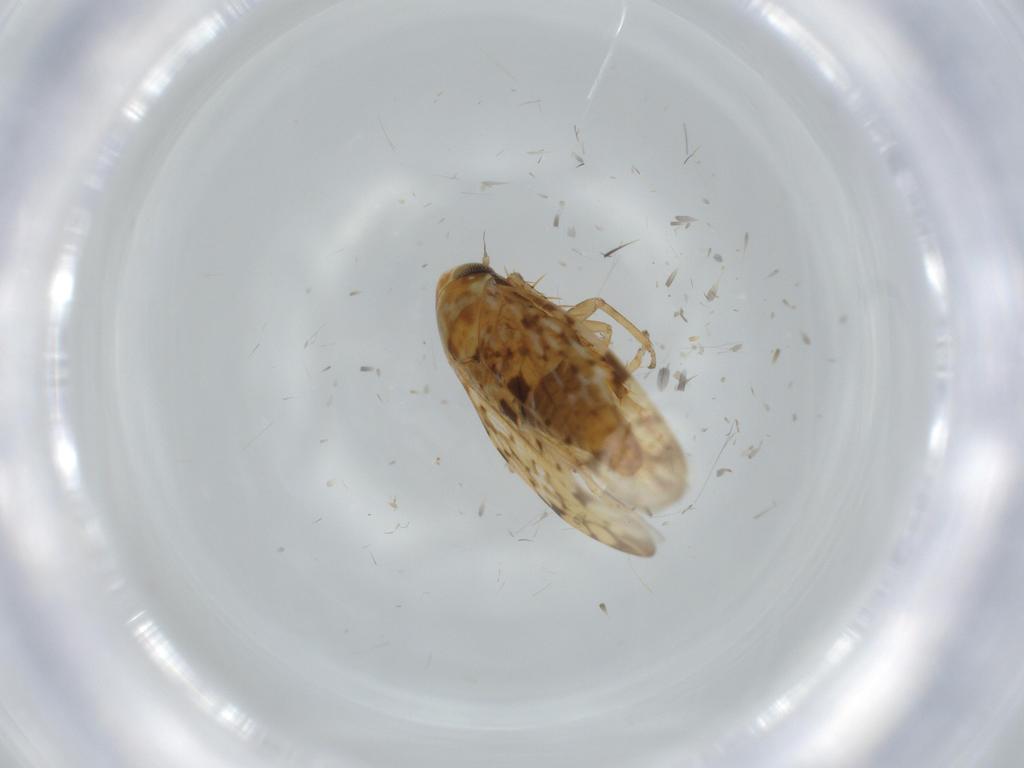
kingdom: Animalia
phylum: Arthropoda
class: Insecta
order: Hemiptera
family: Cicadellidae
